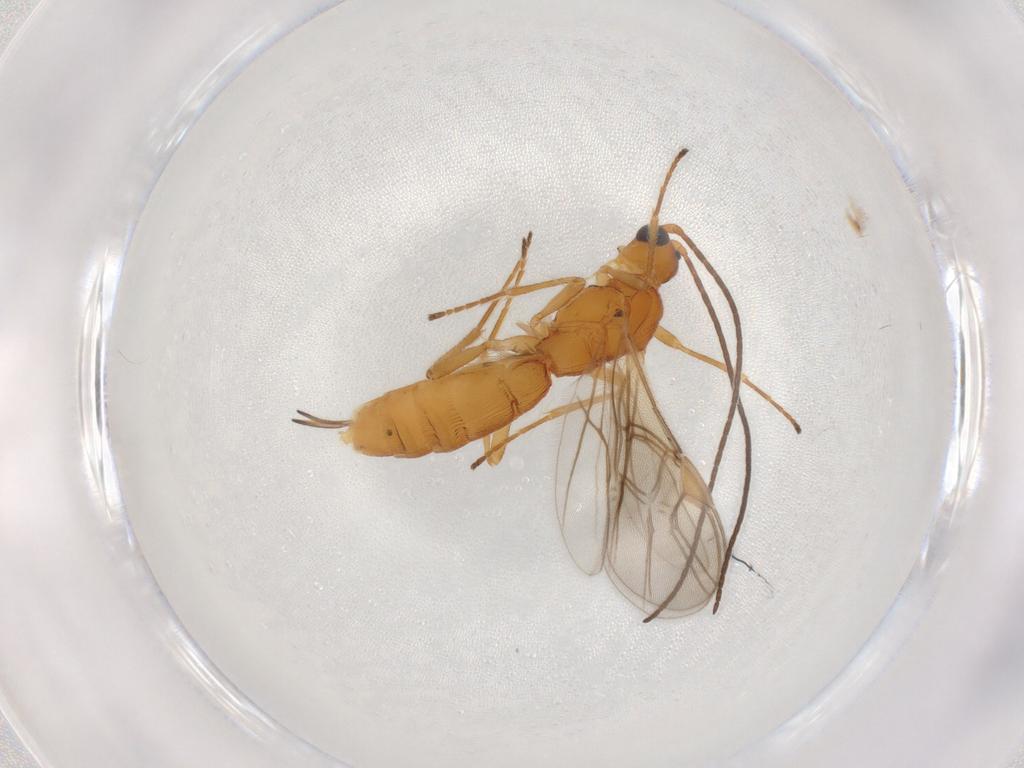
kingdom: Animalia
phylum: Arthropoda
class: Insecta
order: Hymenoptera
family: Braconidae
